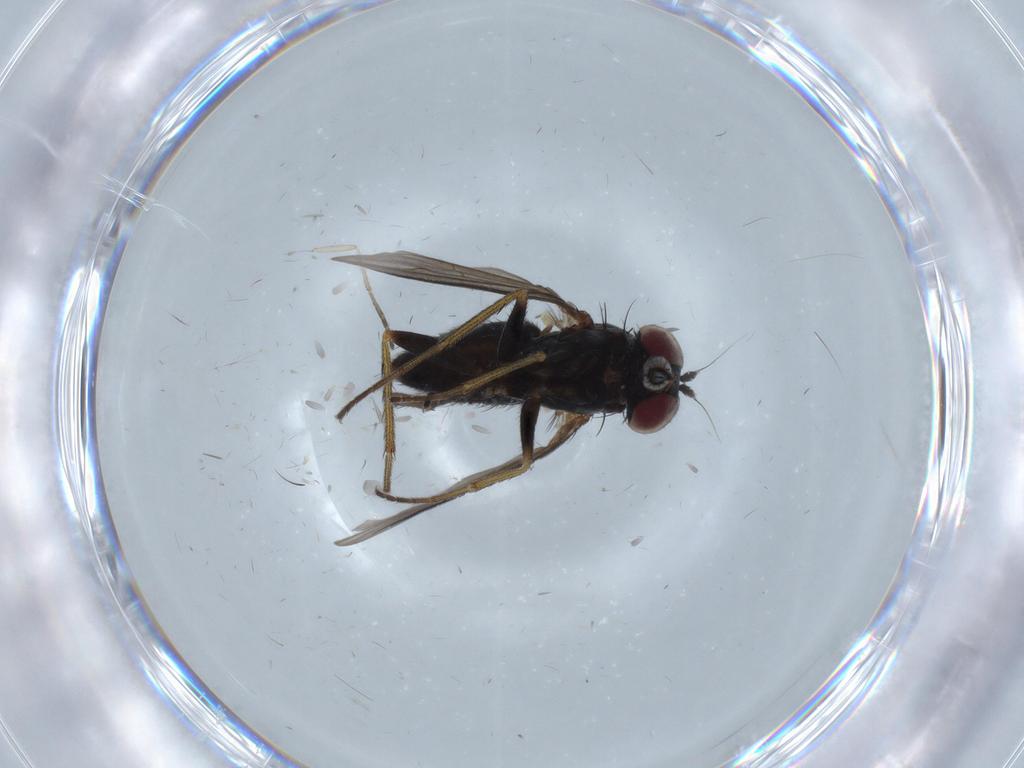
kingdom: Animalia
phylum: Arthropoda
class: Insecta
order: Diptera
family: Dolichopodidae
